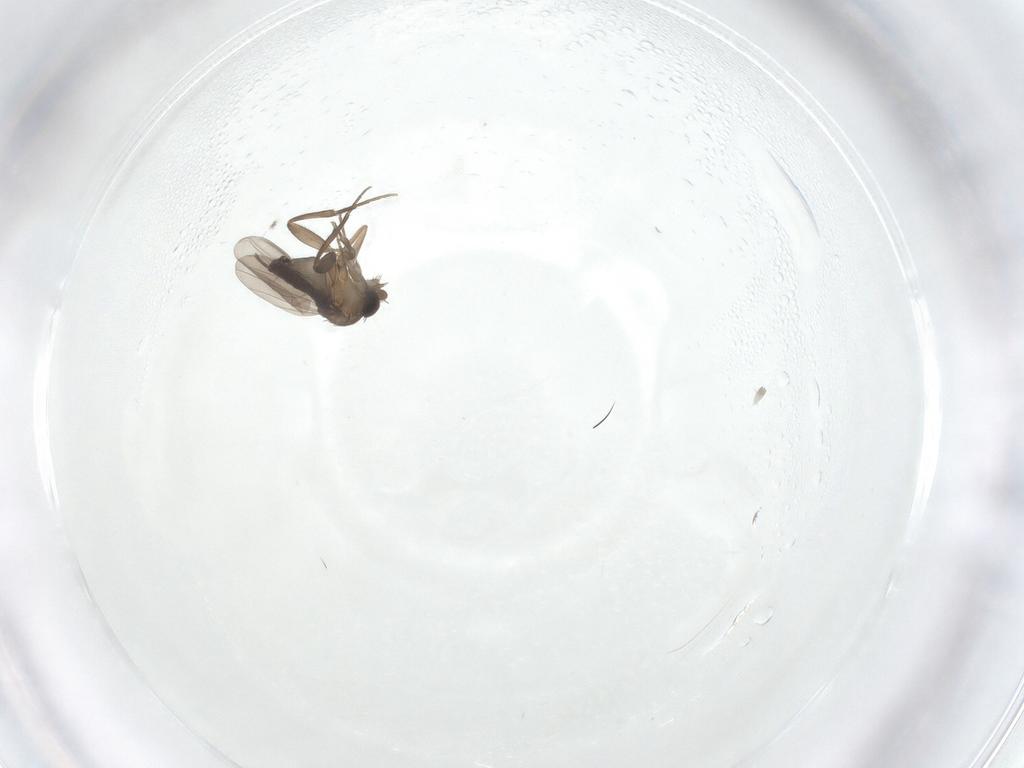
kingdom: Animalia
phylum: Arthropoda
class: Insecta
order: Diptera
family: Phoridae
